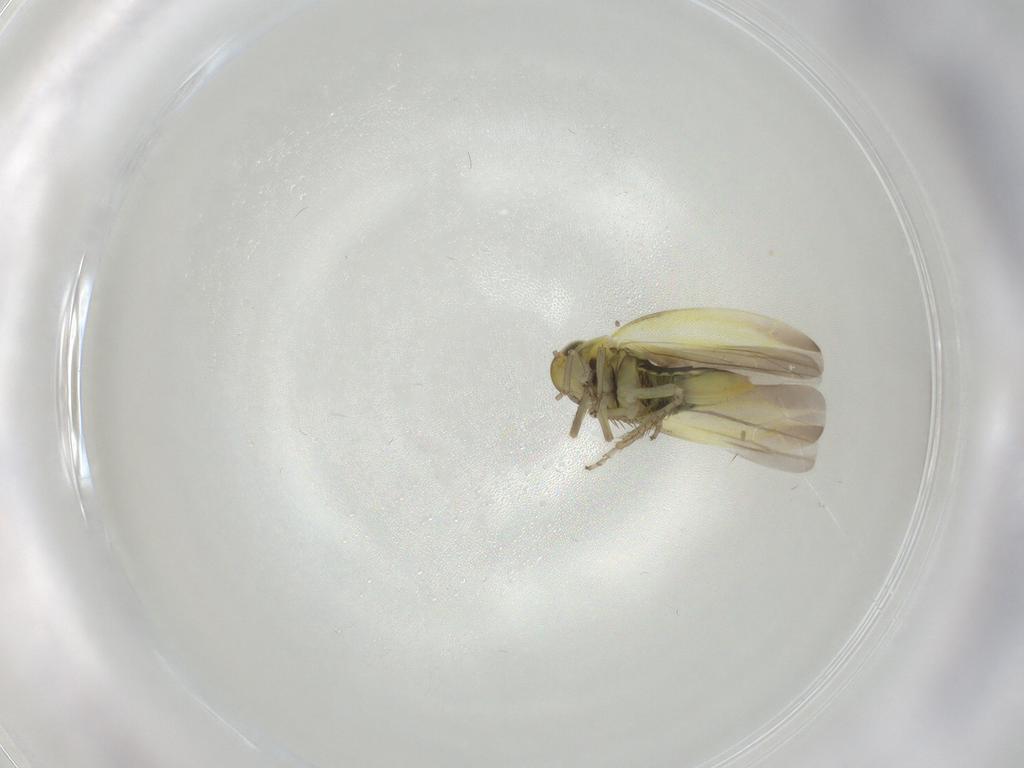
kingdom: Animalia
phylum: Arthropoda
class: Insecta
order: Hemiptera
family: Cicadellidae
